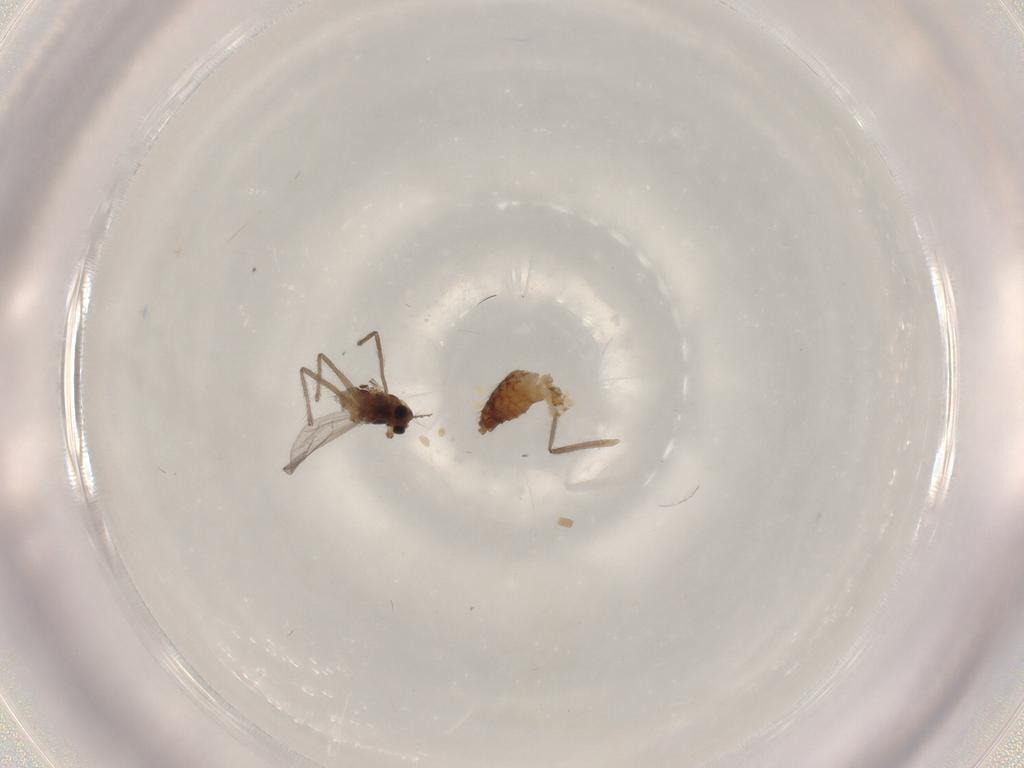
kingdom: Animalia
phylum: Arthropoda
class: Insecta
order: Diptera
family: Chironomidae
